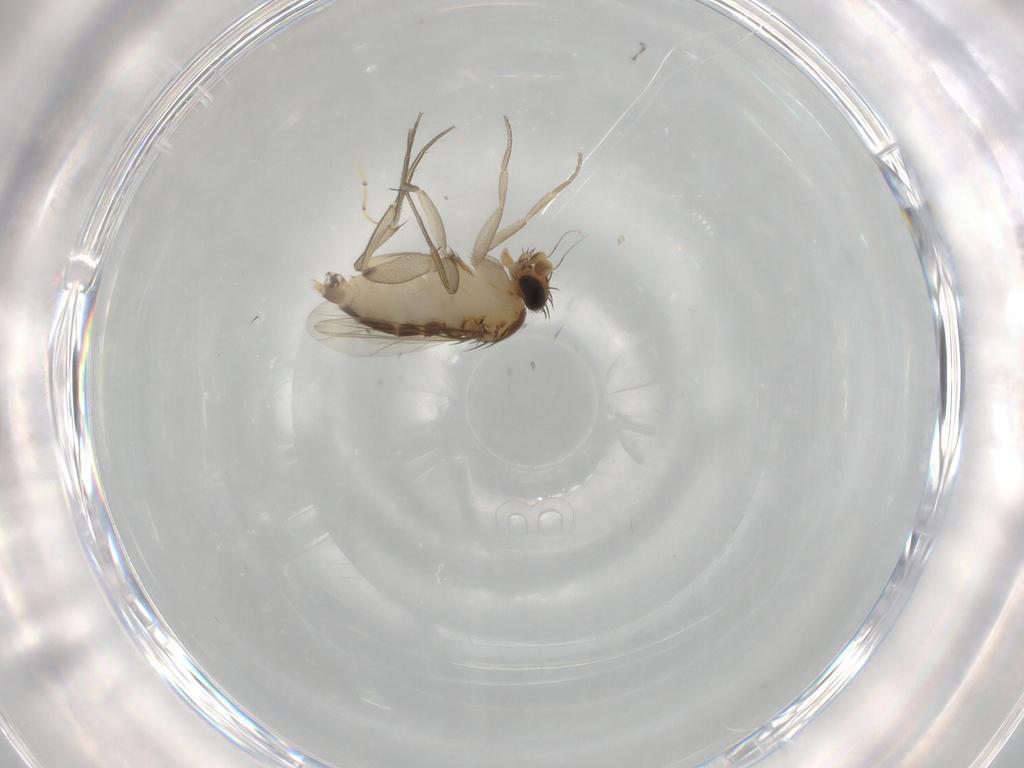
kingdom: Animalia
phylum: Arthropoda
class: Insecta
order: Diptera
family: Phoridae
